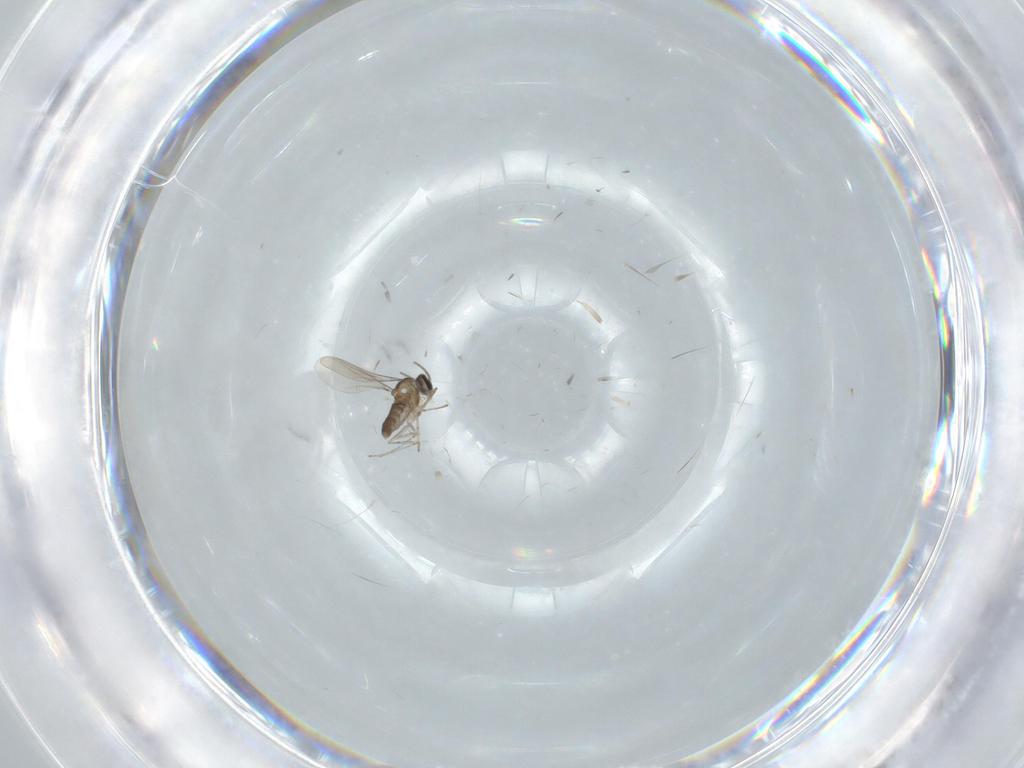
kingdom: Animalia
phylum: Arthropoda
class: Insecta
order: Diptera
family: Cecidomyiidae
